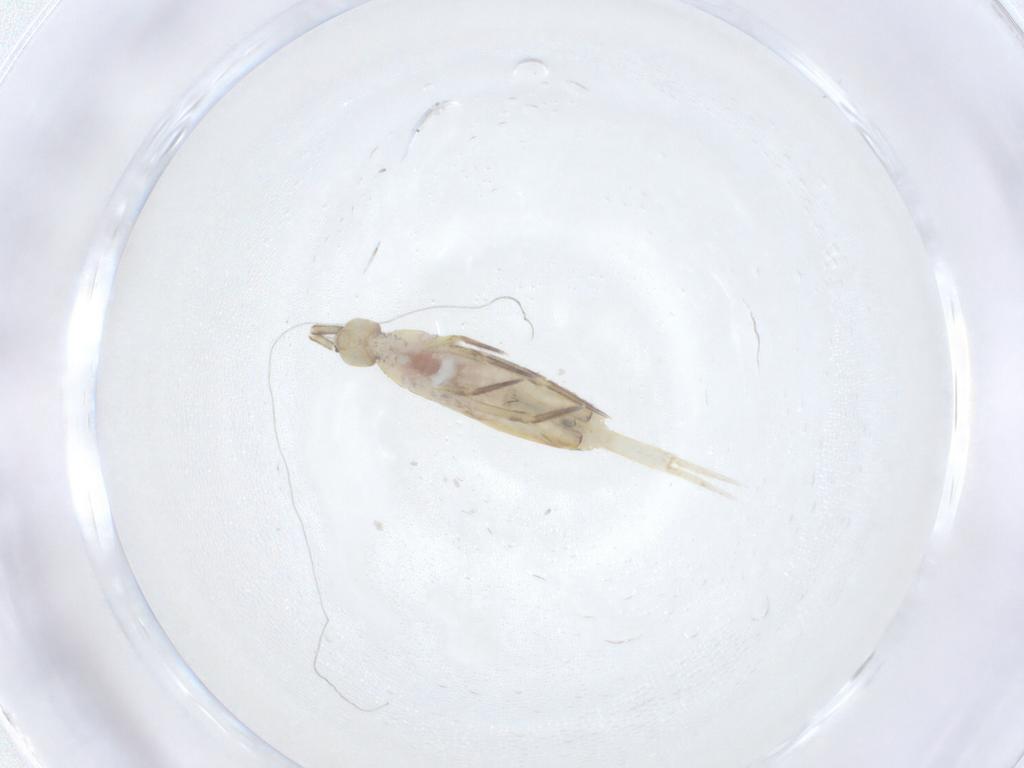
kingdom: Animalia
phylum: Arthropoda
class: Collembola
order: Entomobryomorpha
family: Entomobryidae
